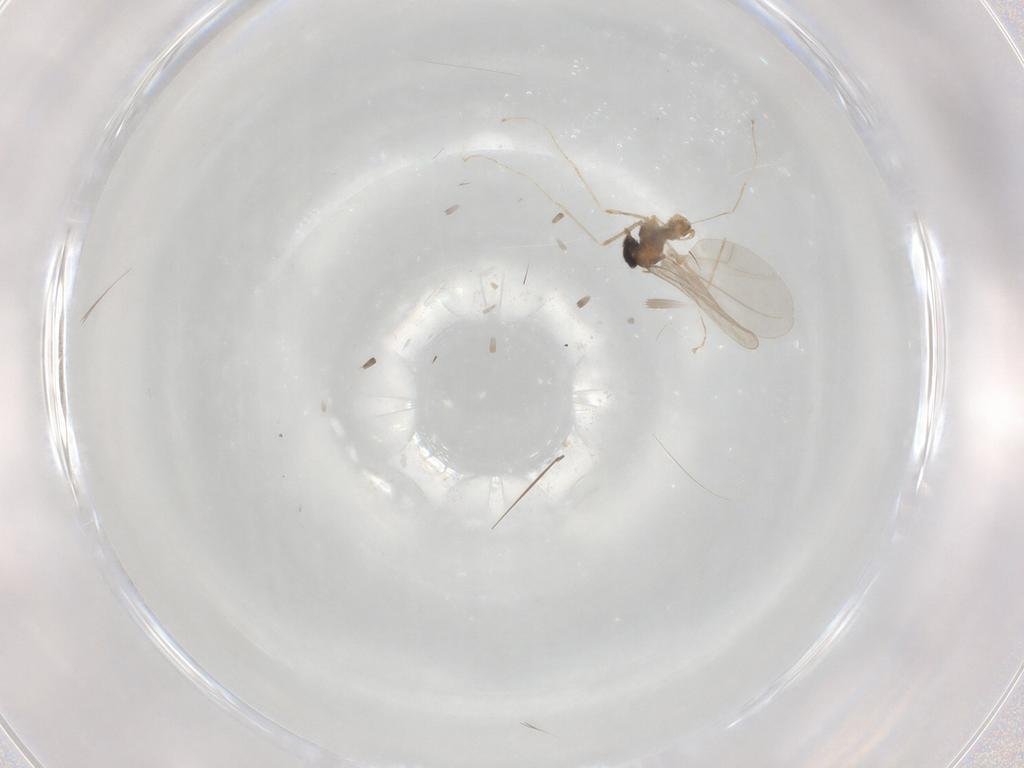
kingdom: Animalia
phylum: Arthropoda
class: Insecta
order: Diptera
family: Cecidomyiidae
